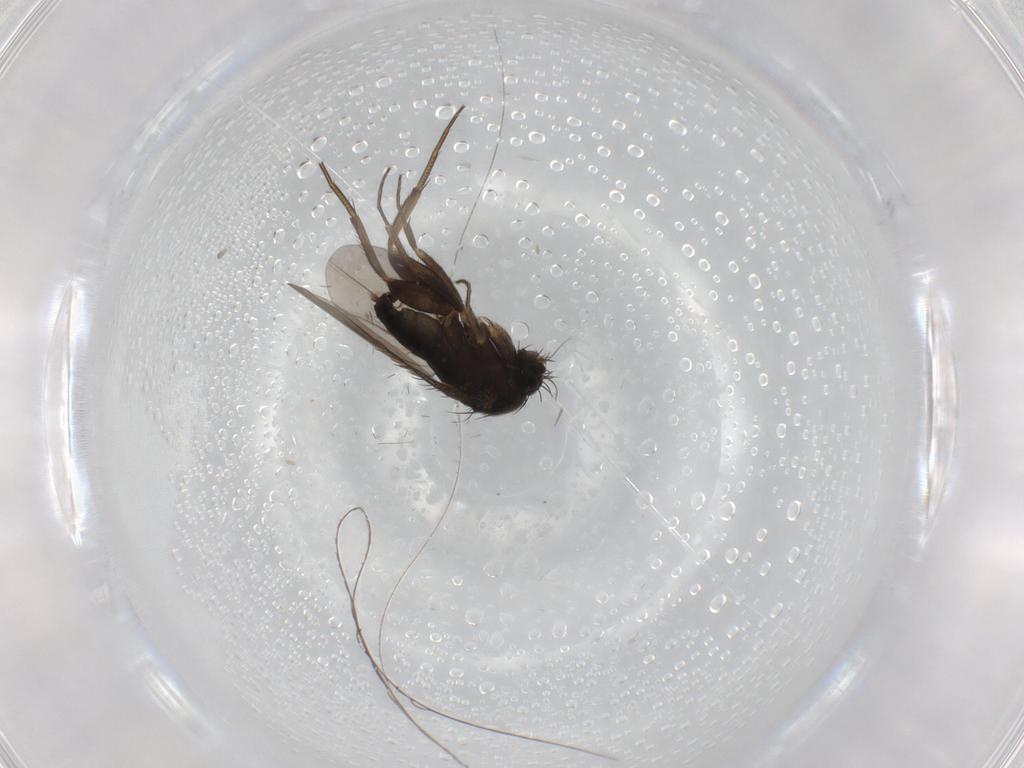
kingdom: Animalia
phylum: Arthropoda
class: Insecta
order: Diptera
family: Phoridae
